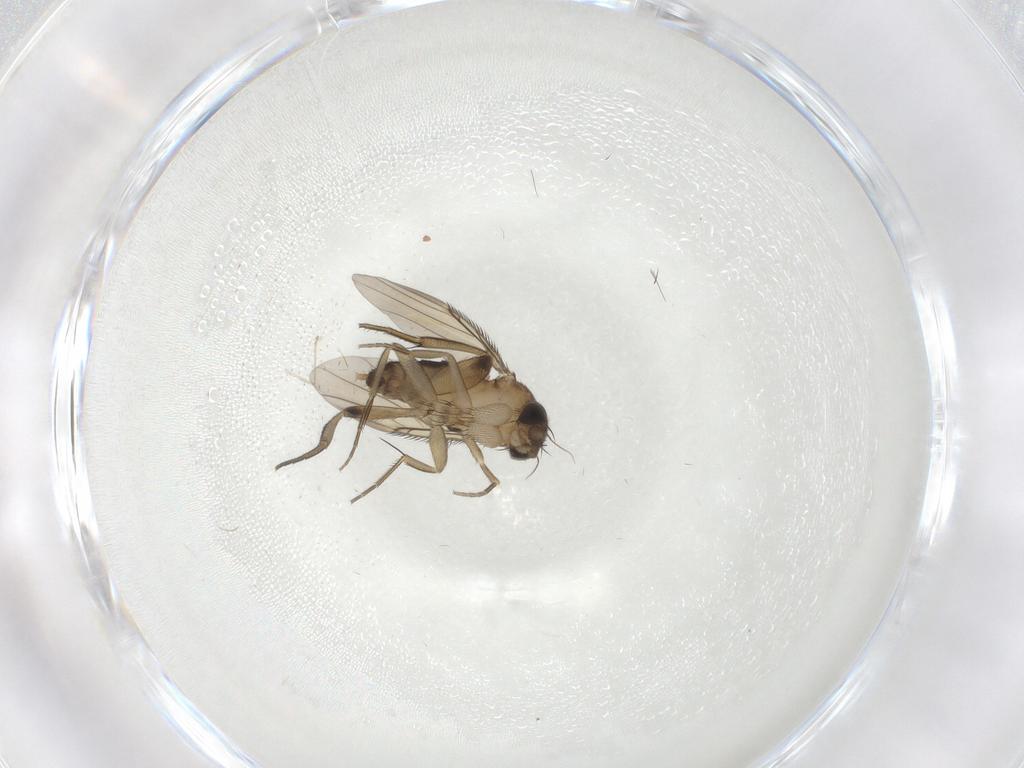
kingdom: Animalia
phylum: Arthropoda
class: Insecta
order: Diptera
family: Phoridae
